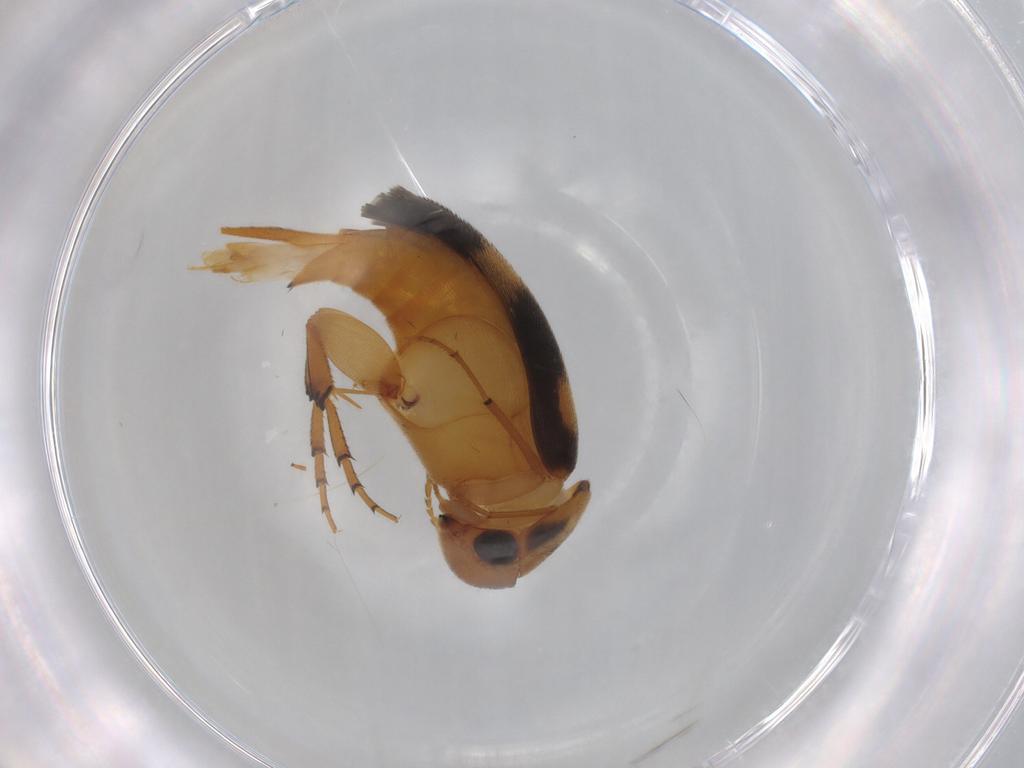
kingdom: Animalia
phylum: Arthropoda
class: Insecta
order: Coleoptera
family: Mordellidae
